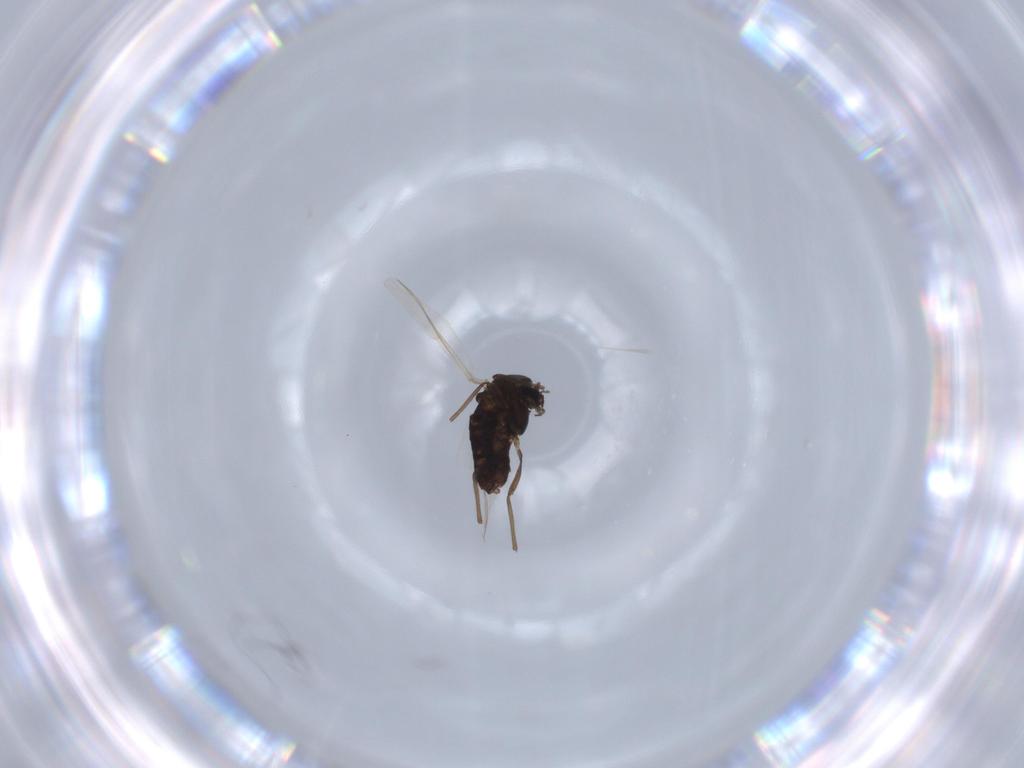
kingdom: Animalia
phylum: Arthropoda
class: Insecta
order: Diptera
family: Chironomidae
